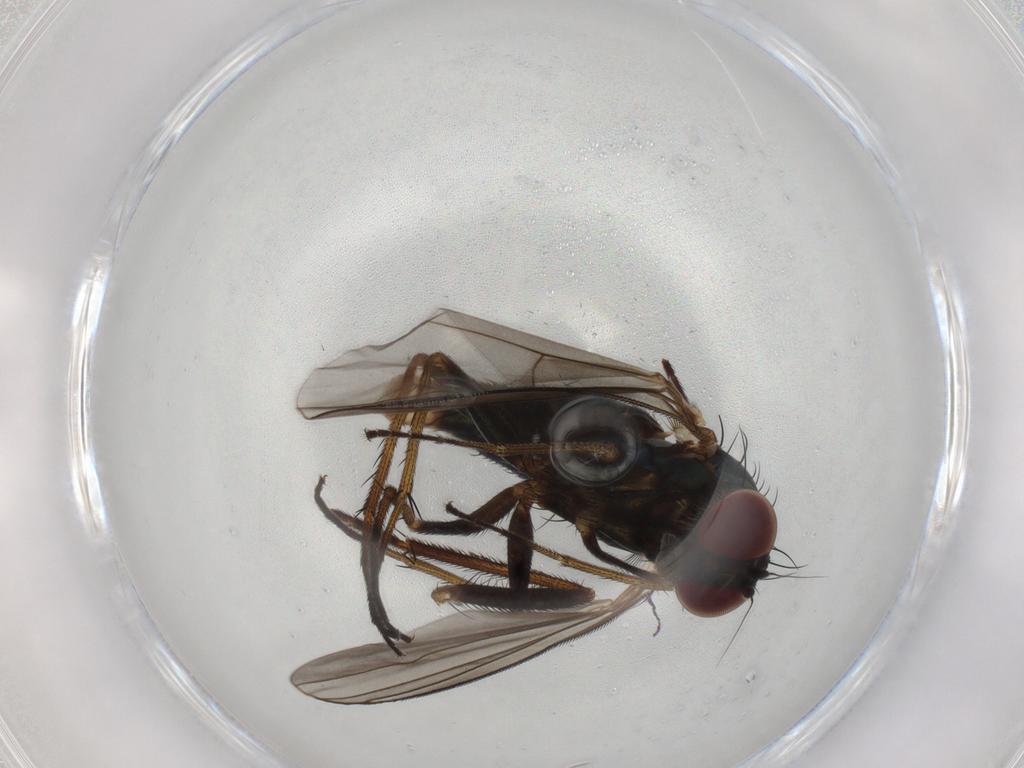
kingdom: Animalia
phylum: Arthropoda
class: Insecta
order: Diptera
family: Dolichopodidae
